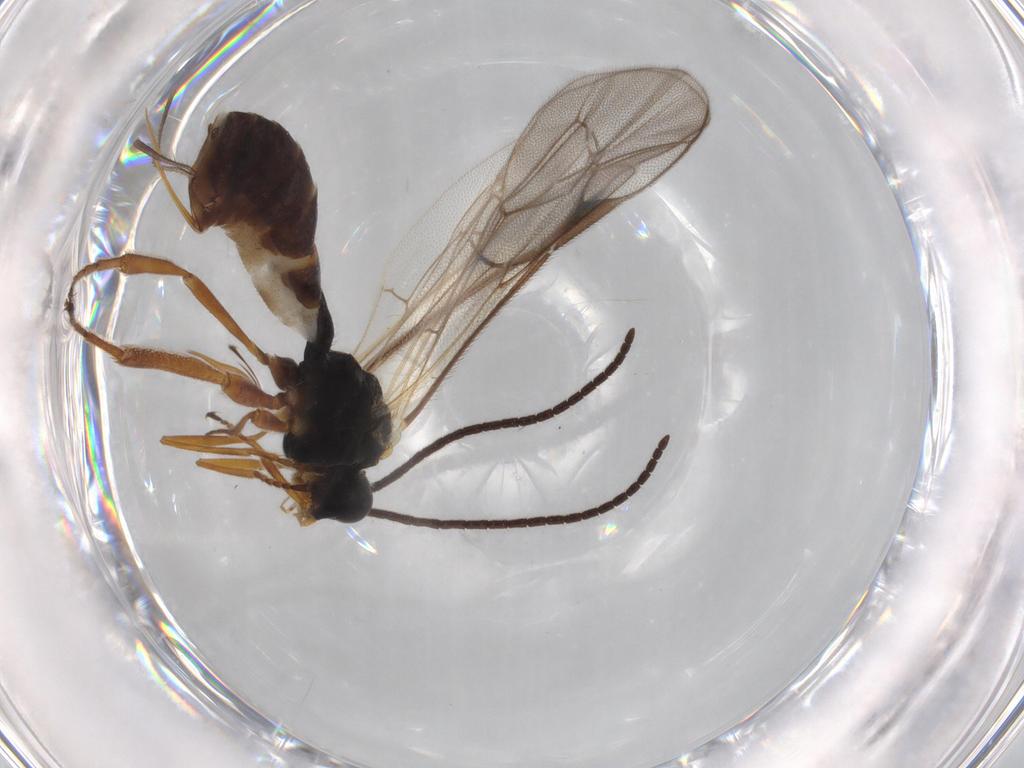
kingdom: Animalia
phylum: Arthropoda
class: Insecta
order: Hymenoptera
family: Ichneumonidae
